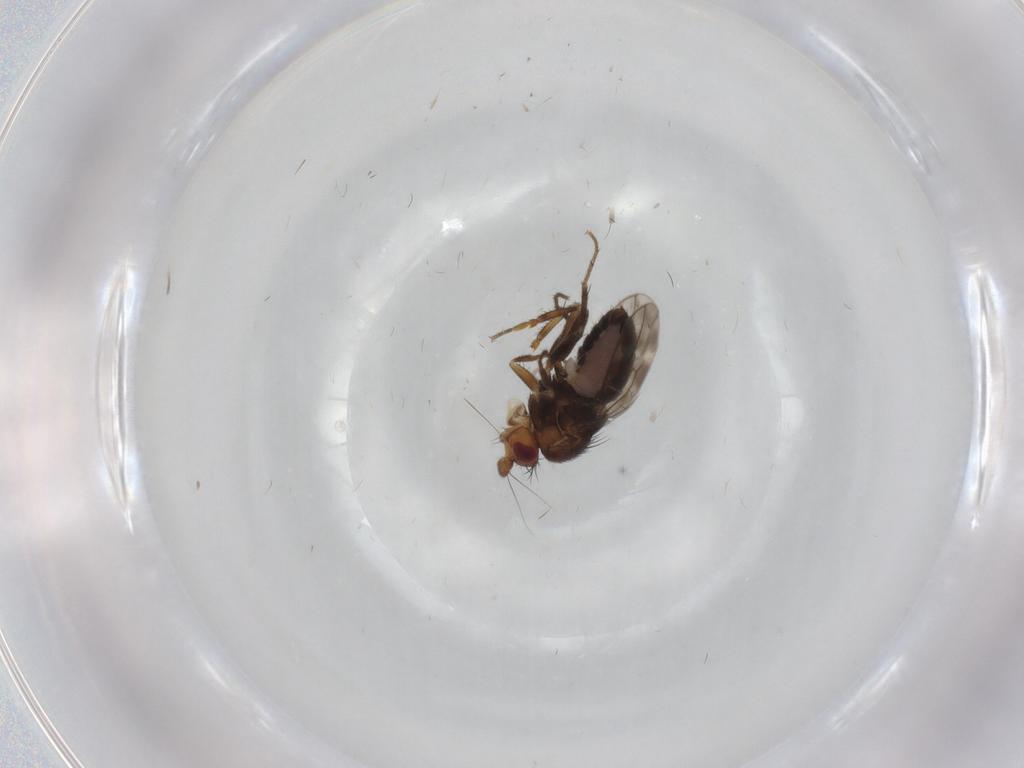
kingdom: Animalia
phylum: Arthropoda
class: Insecta
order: Diptera
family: Sphaeroceridae
